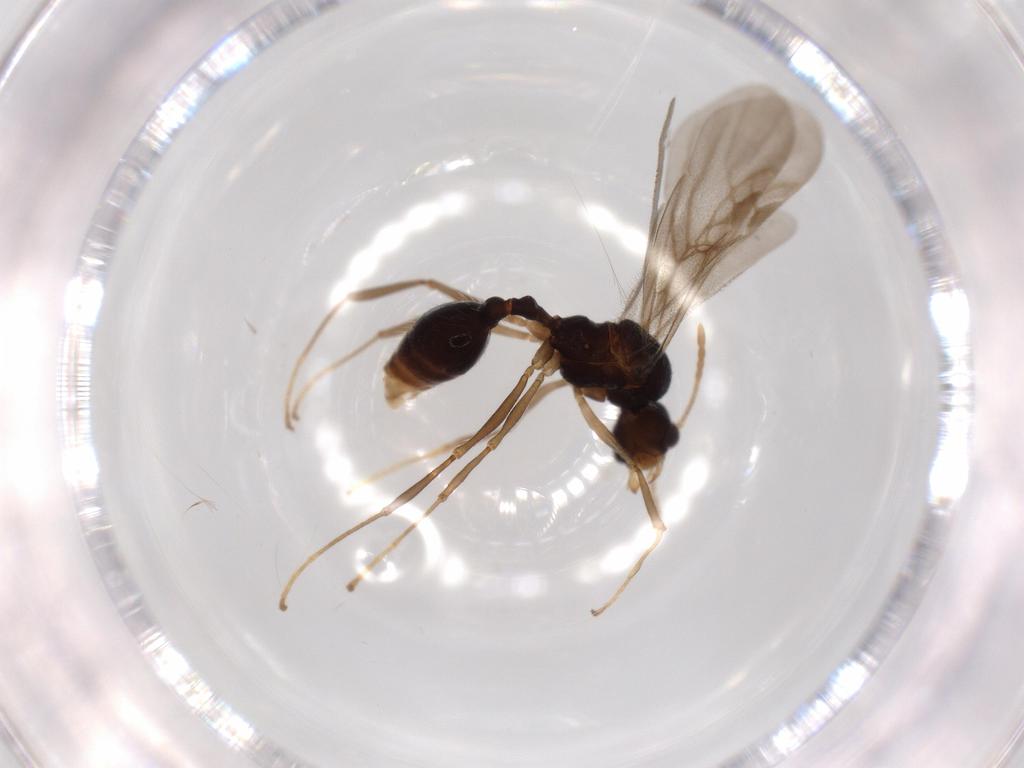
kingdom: Animalia
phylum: Arthropoda
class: Insecta
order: Hymenoptera
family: Formicidae
